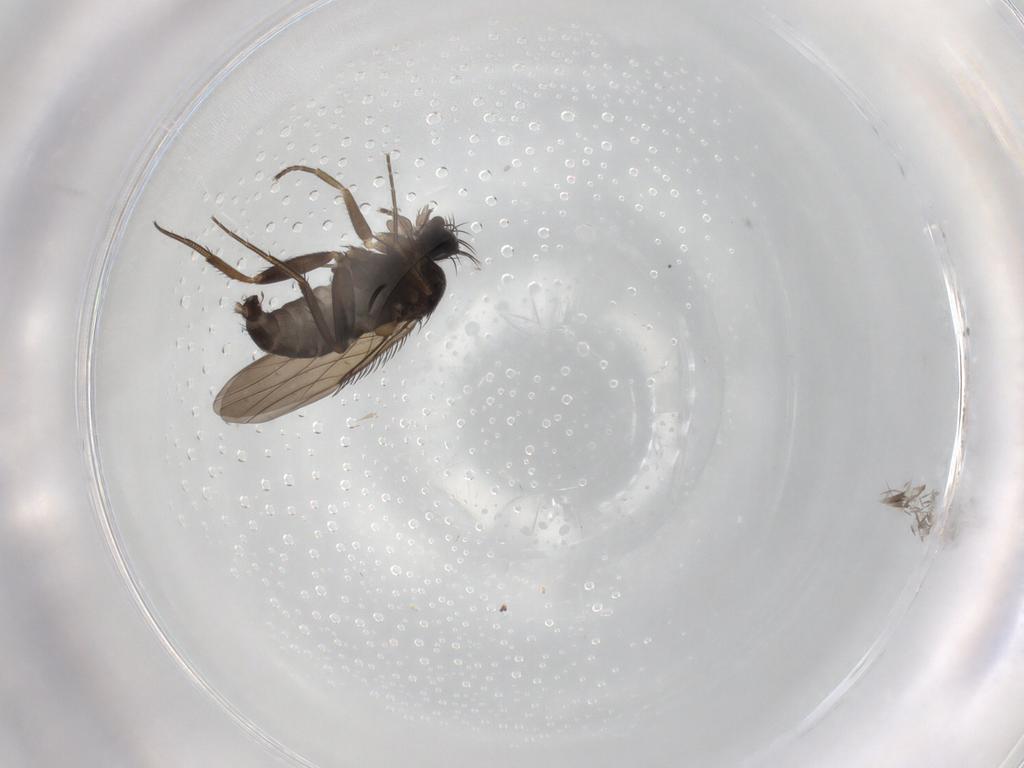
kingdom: Animalia
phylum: Arthropoda
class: Insecta
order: Diptera
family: Phoridae
